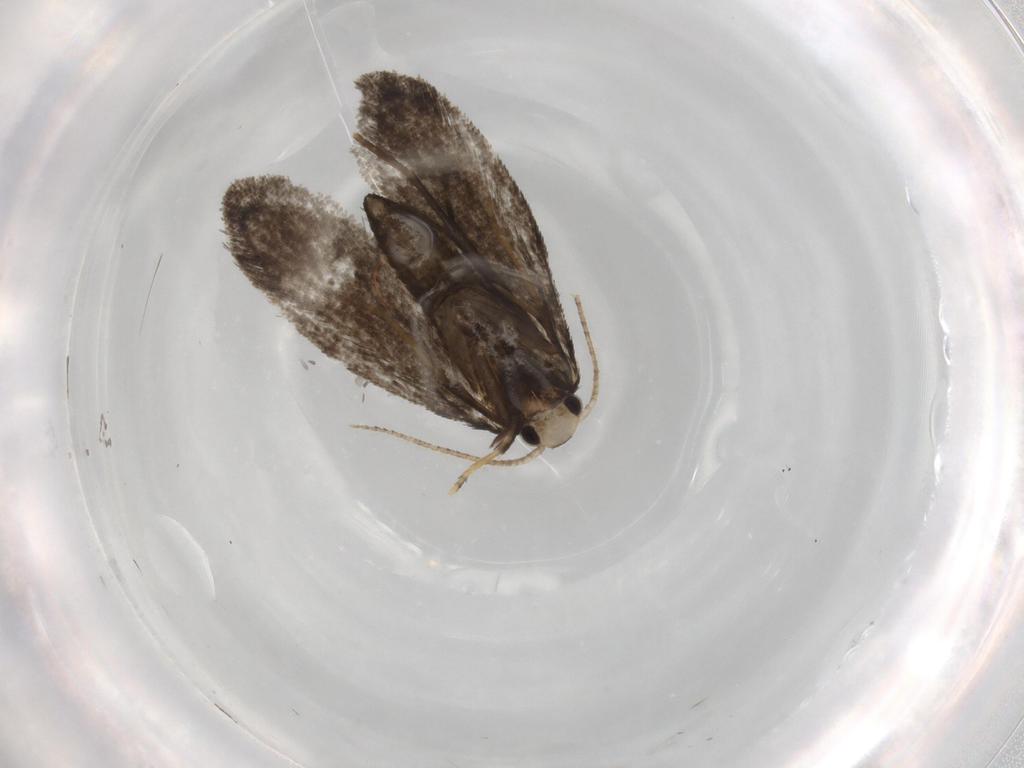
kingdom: Animalia
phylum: Arthropoda
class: Insecta
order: Lepidoptera
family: Psychidae
